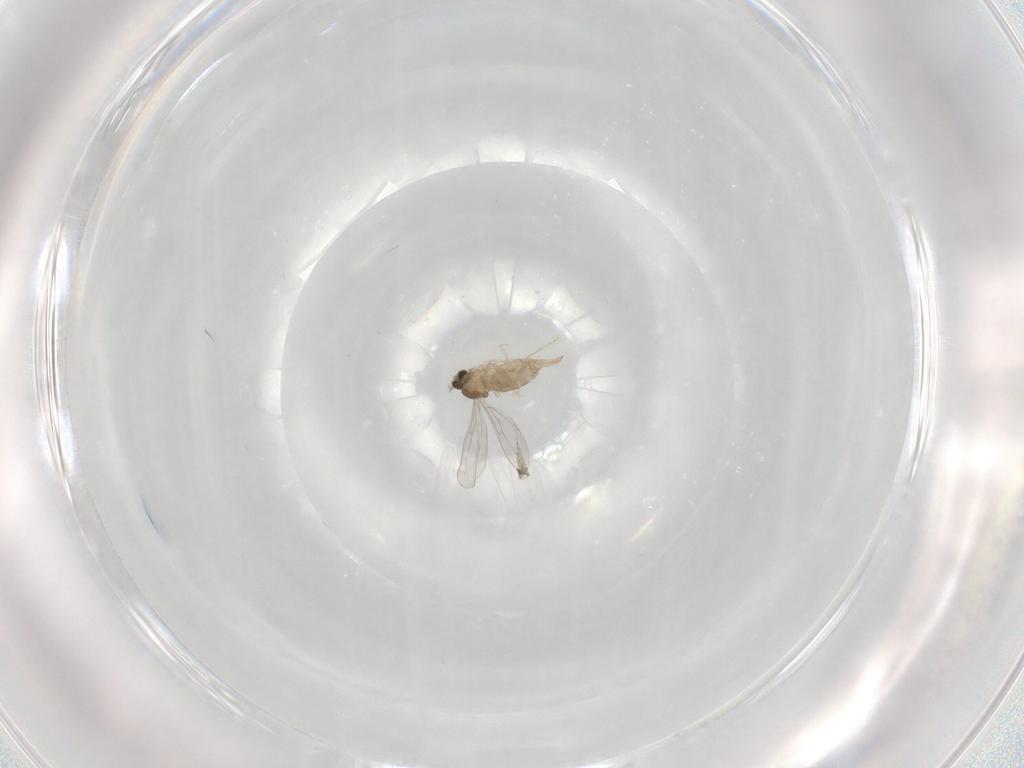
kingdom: Animalia
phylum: Arthropoda
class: Insecta
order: Diptera
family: Cecidomyiidae
